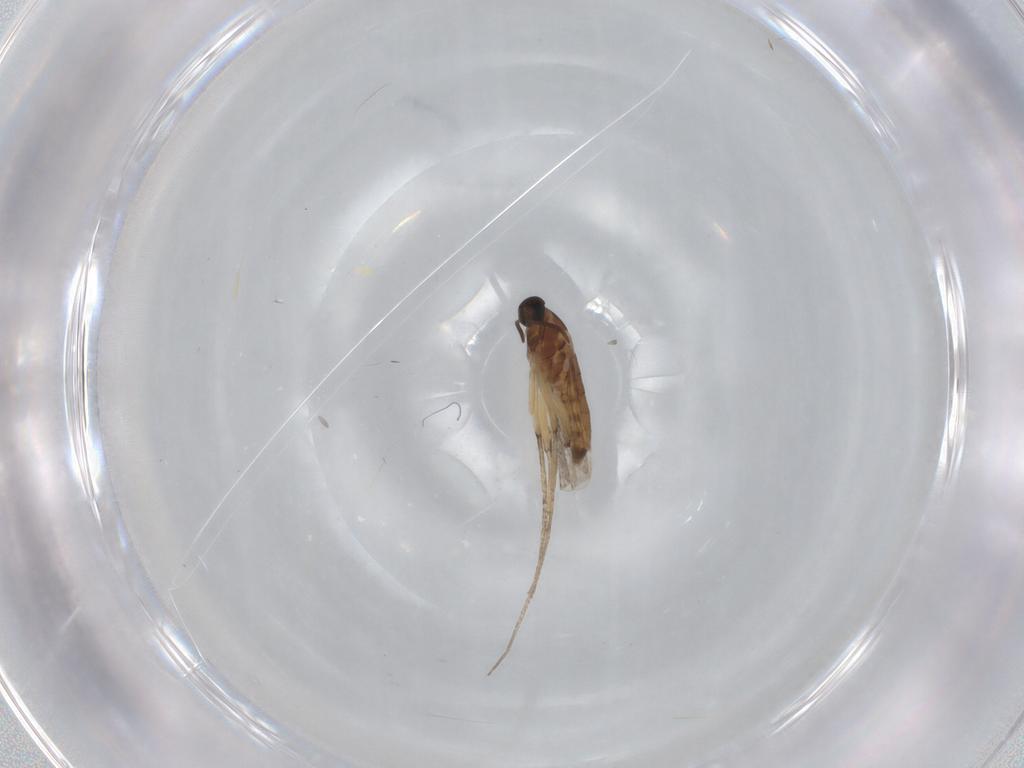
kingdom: Animalia
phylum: Arthropoda
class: Insecta
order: Diptera
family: Cecidomyiidae
